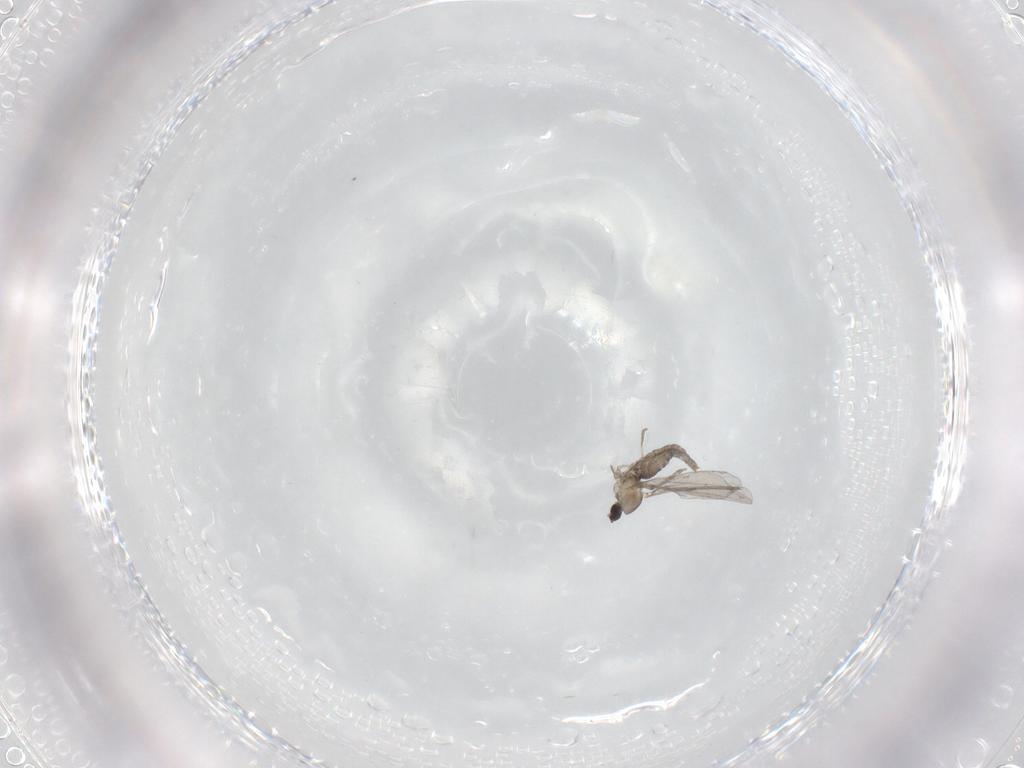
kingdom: Animalia
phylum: Arthropoda
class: Insecta
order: Diptera
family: Cecidomyiidae
